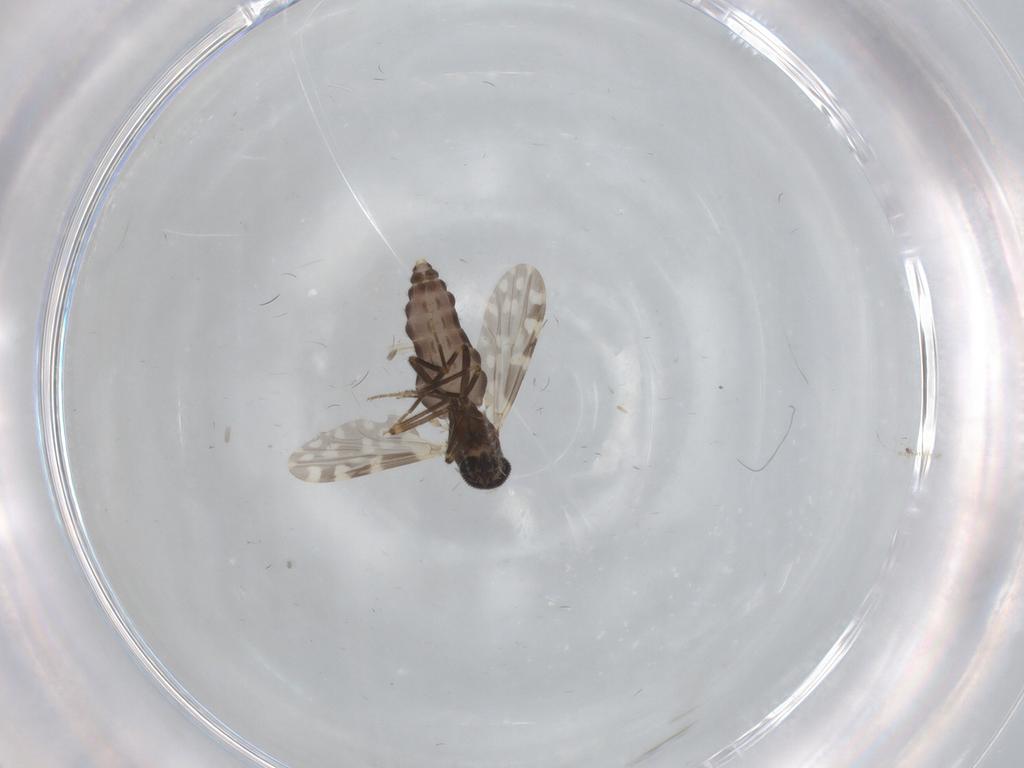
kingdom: Animalia
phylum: Arthropoda
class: Insecta
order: Diptera
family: Ceratopogonidae
